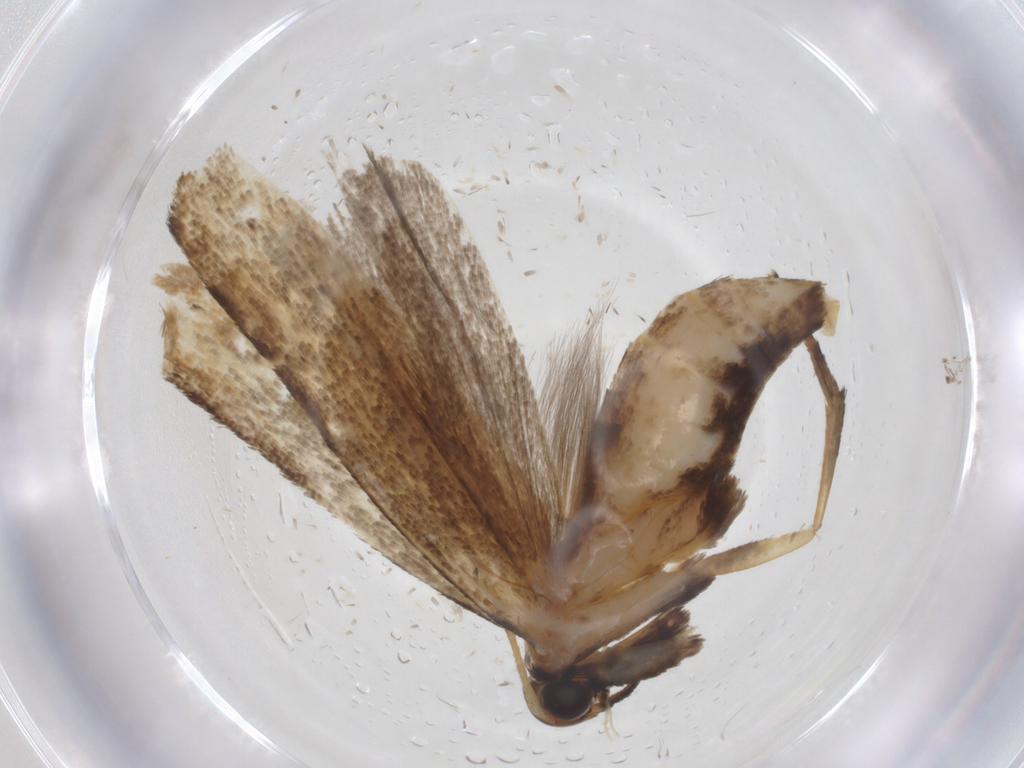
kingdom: Animalia
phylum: Arthropoda
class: Insecta
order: Lepidoptera
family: Gelechiidae
